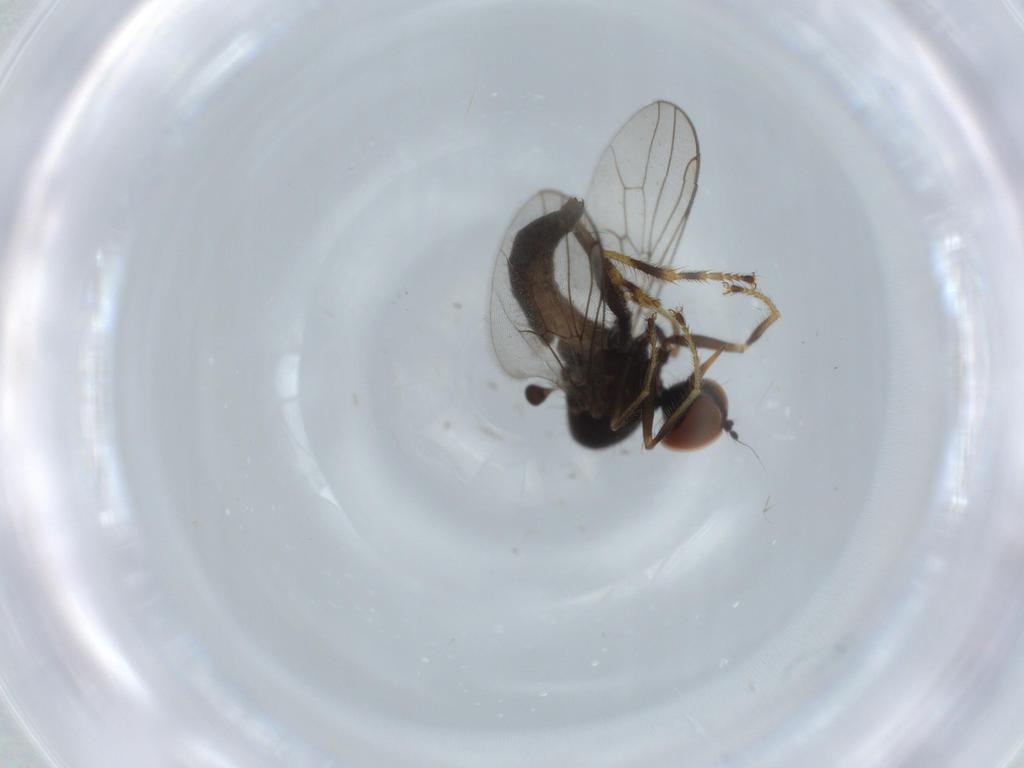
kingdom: Animalia
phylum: Arthropoda
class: Insecta
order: Diptera
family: Hybotidae
